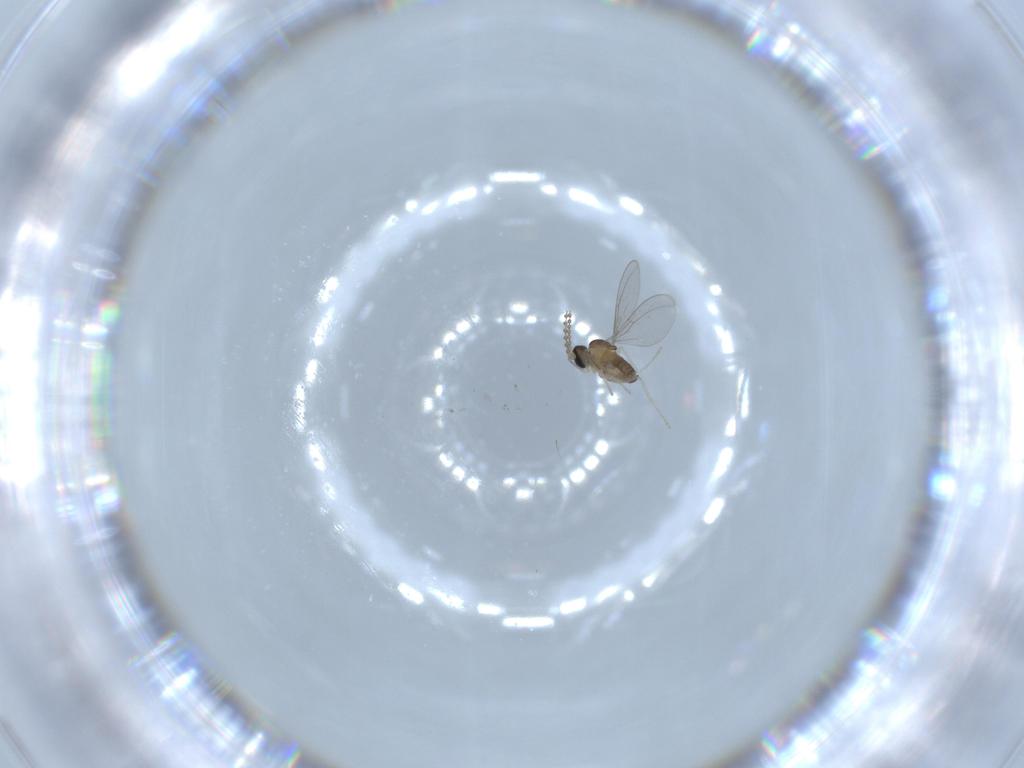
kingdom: Animalia
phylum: Arthropoda
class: Insecta
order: Diptera
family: Cecidomyiidae
